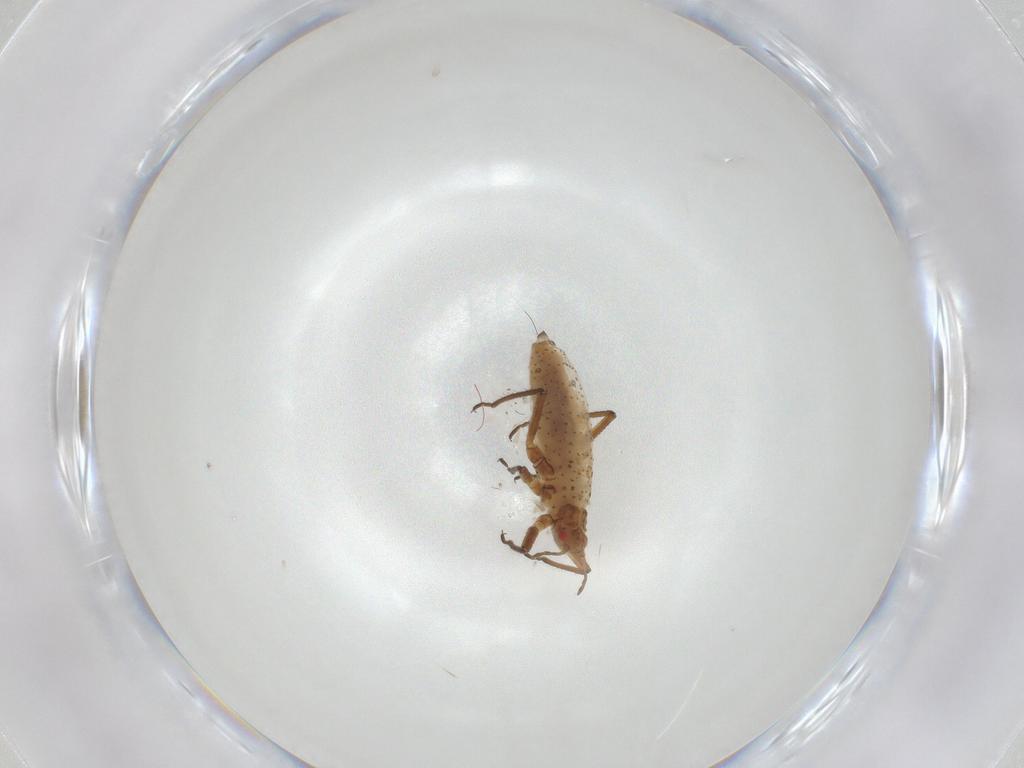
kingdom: Animalia
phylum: Arthropoda
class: Insecta
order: Hemiptera
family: Aphididae
